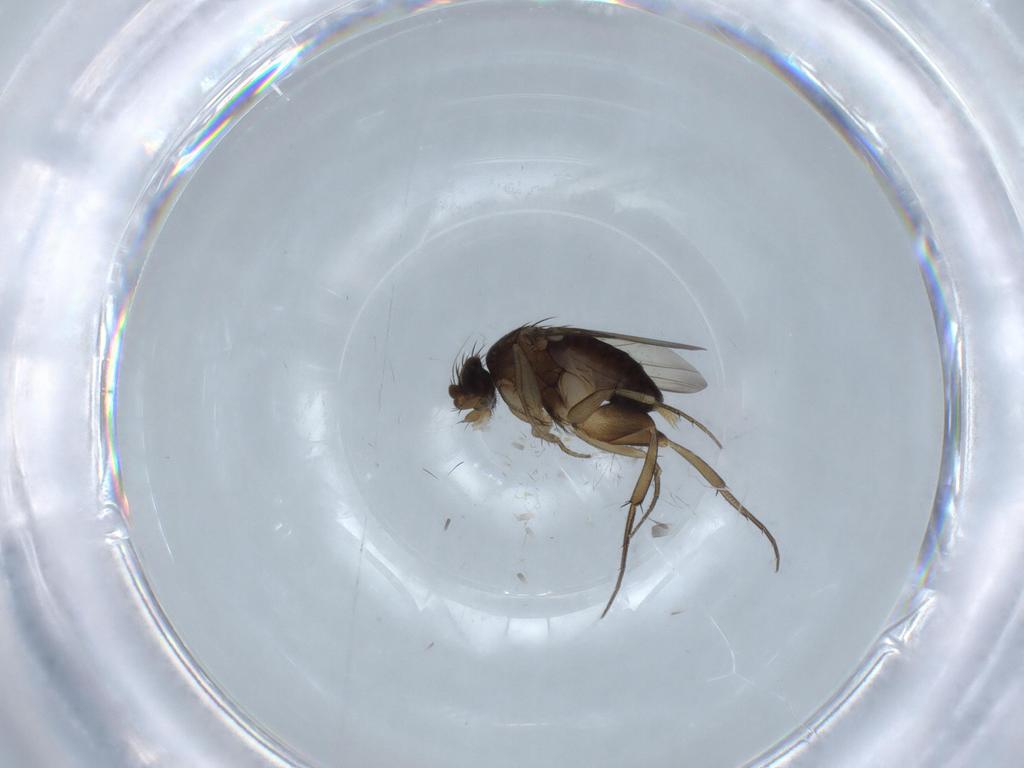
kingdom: Animalia
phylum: Arthropoda
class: Insecta
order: Diptera
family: Phoridae
